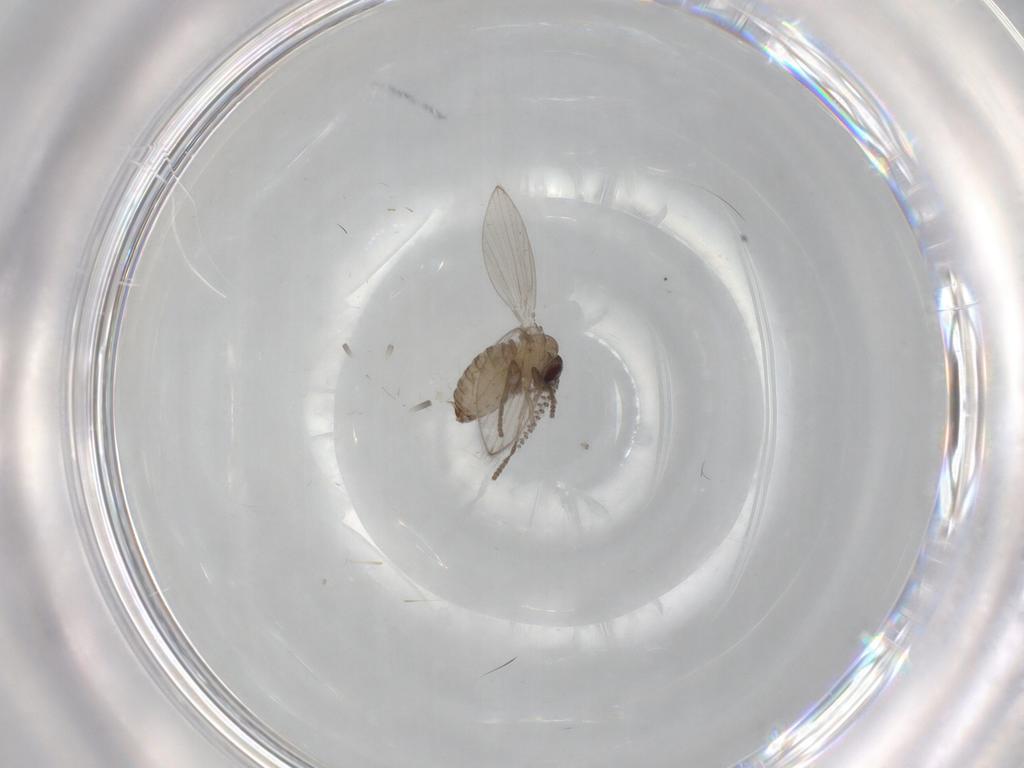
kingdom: Animalia
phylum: Arthropoda
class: Insecta
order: Diptera
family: Psychodidae
